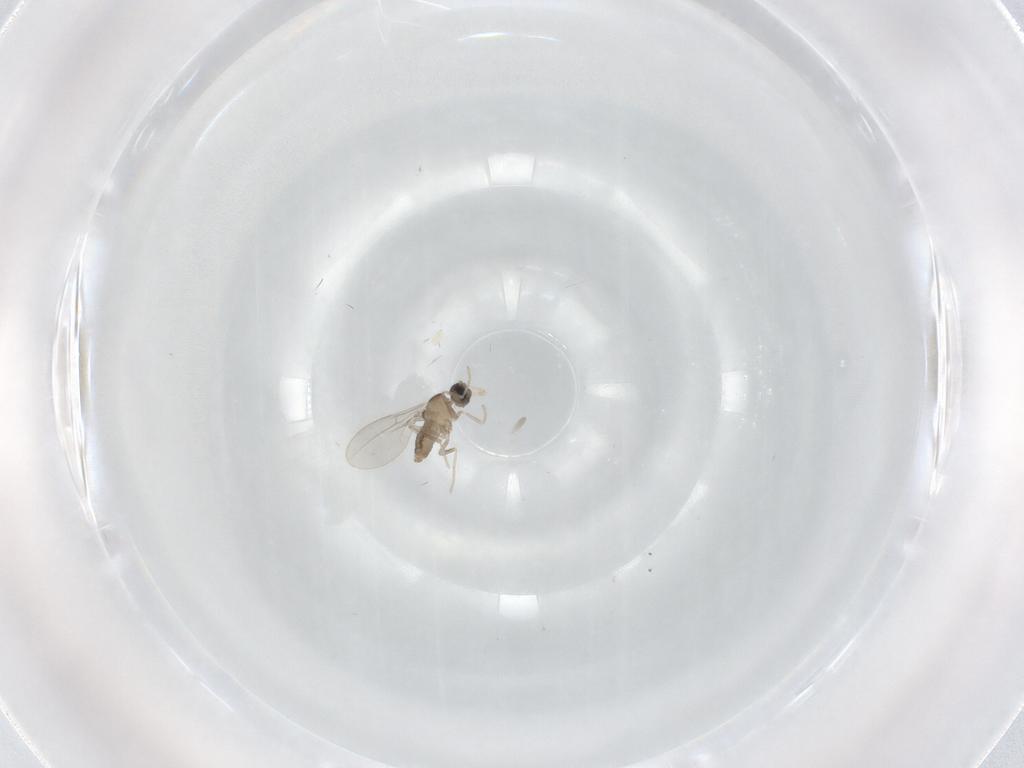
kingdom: Animalia
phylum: Arthropoda
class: Insecta
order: Diptera
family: Cecidomyiidae
